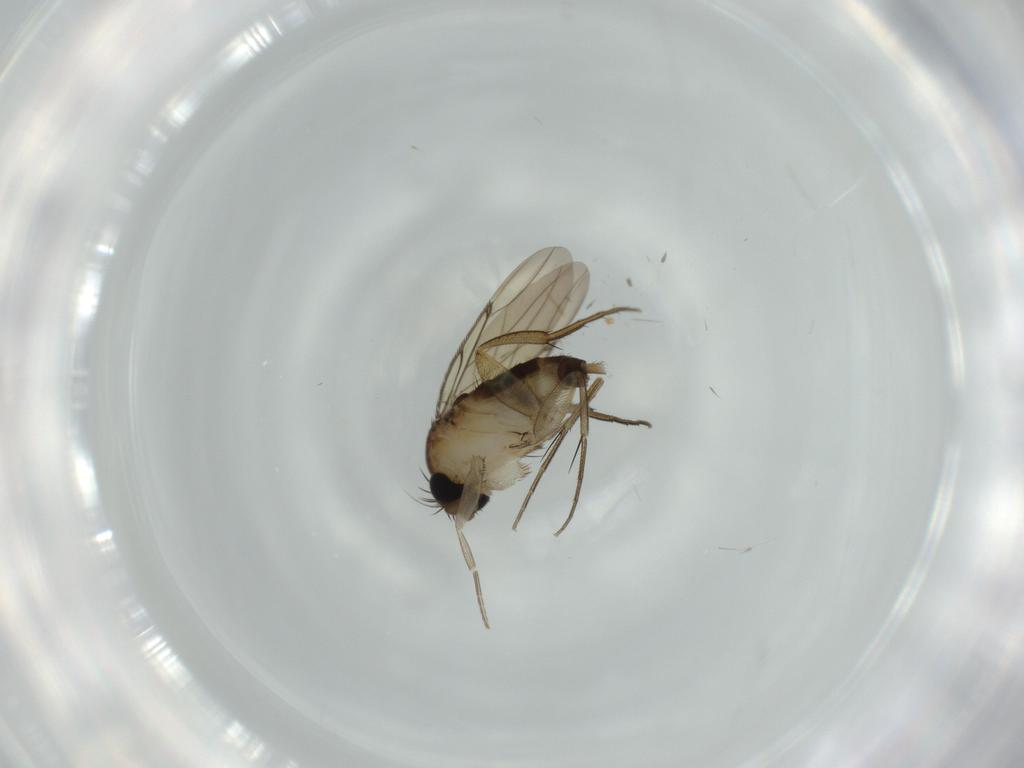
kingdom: Animalia
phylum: Arthropoda
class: Insecta
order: Diptera
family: Phoridae
